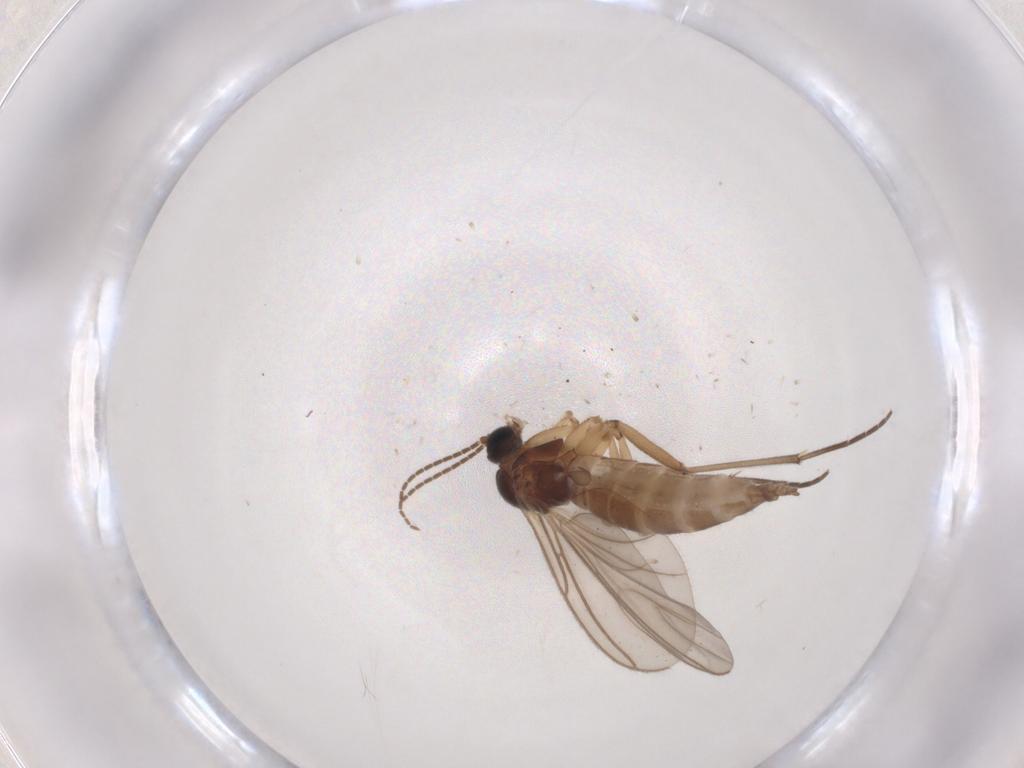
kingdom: Animalia
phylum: Arthropoda
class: Insecta
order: Diptera
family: Sciaridae
